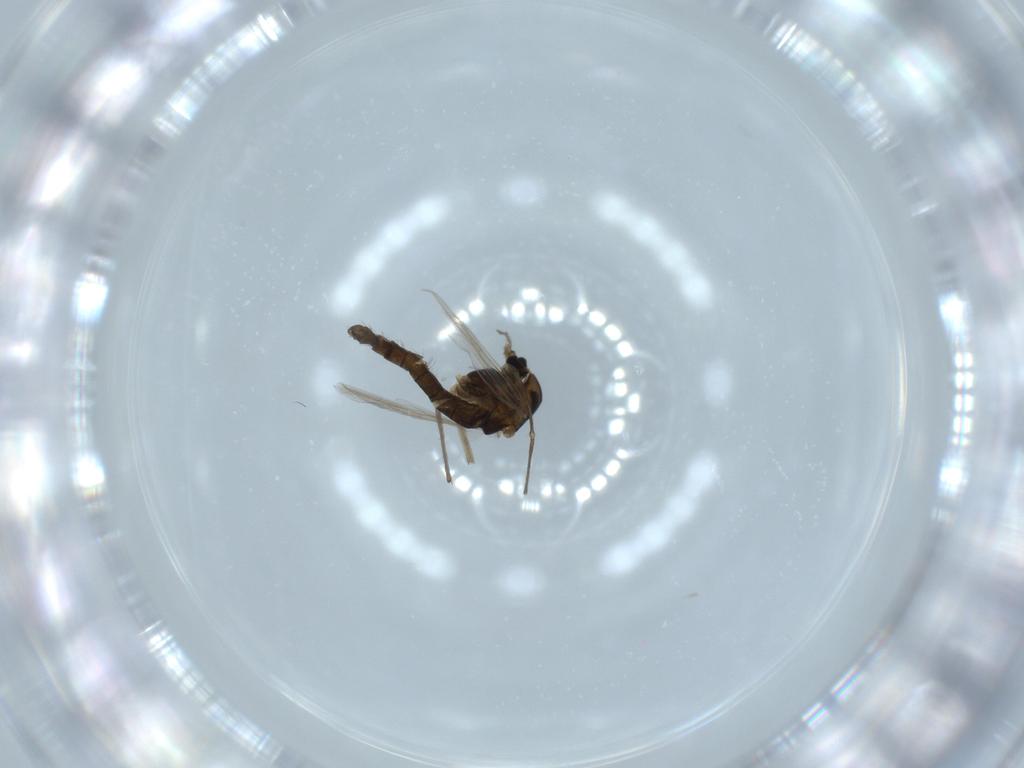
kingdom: Animalia
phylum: Arthropoda
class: Insecta
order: Diptera
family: Chironomidae
